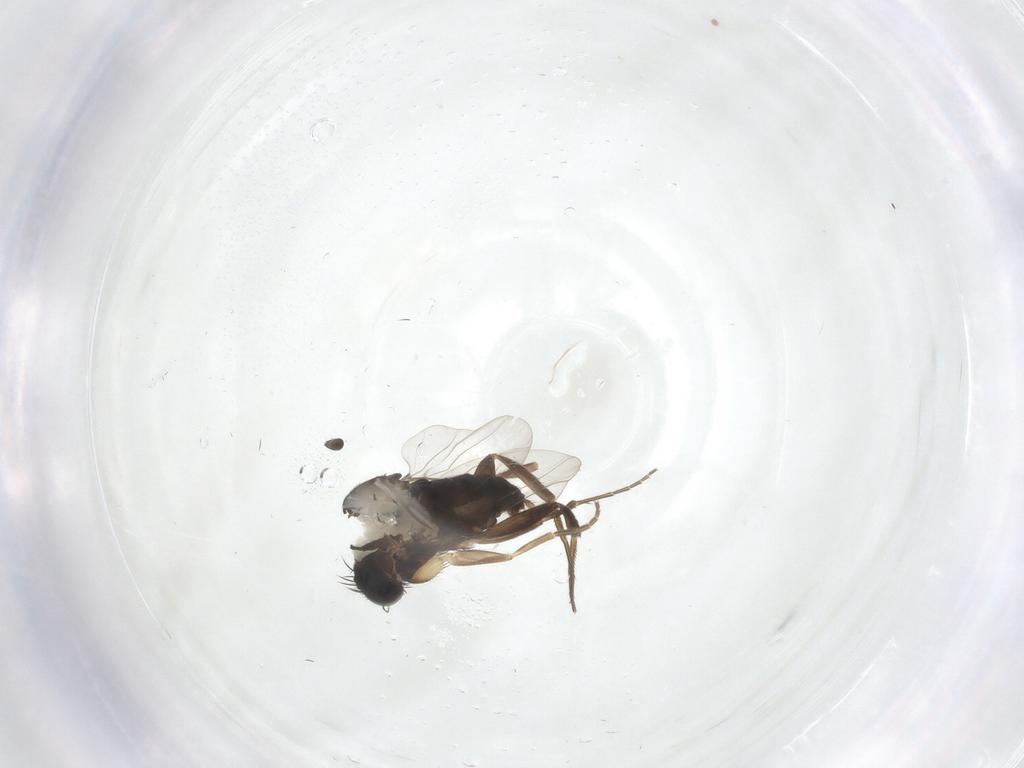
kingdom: Animalia
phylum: Arthropoda
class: Insecta
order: Diptera
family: Phoridae
